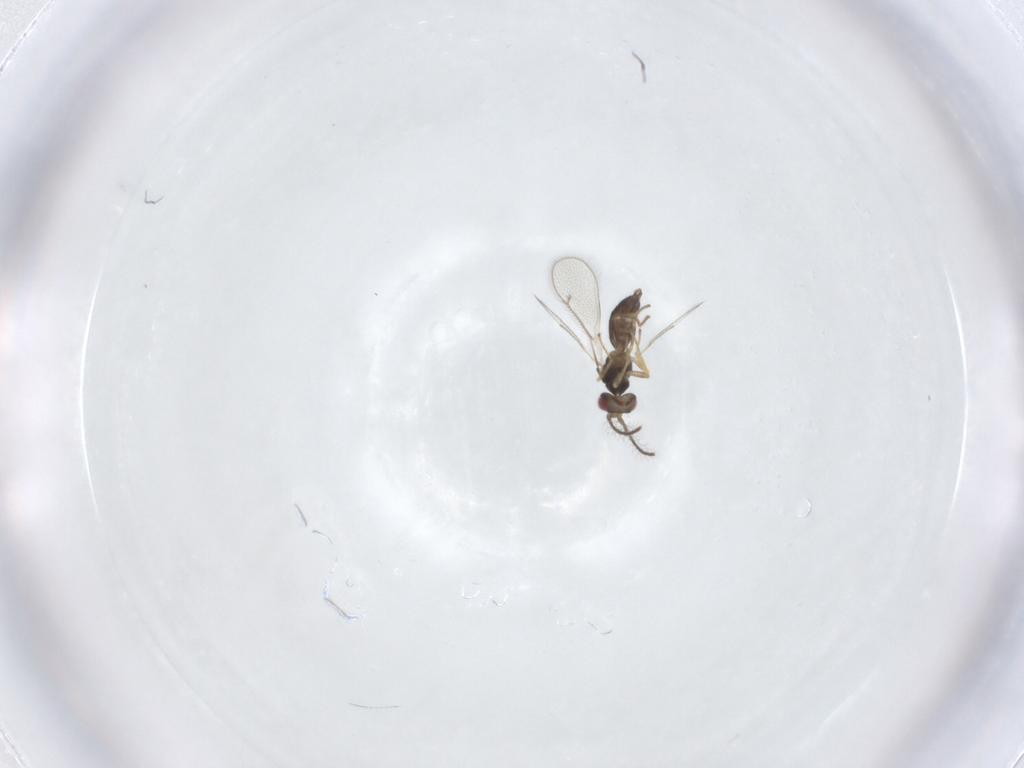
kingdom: Animalia
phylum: Arthropoda
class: Insecta
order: Hymenoptera
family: Eulophidae
